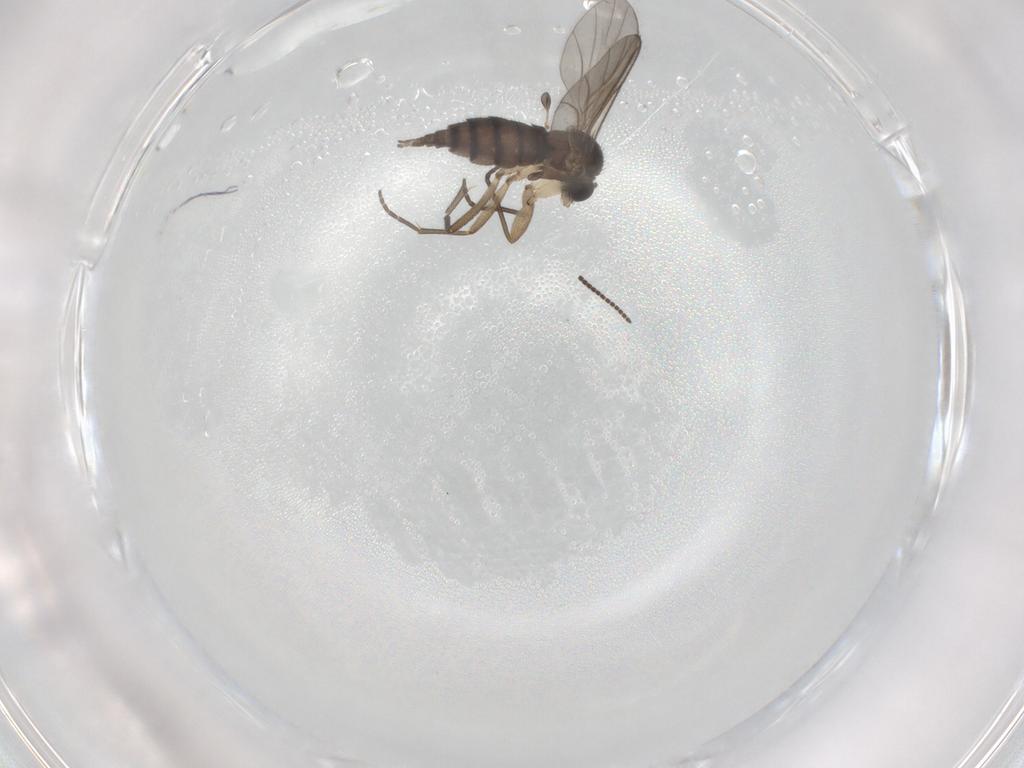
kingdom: Animalia
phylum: Arthropoda
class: Insecta
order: Diptera
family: Sciaridae
